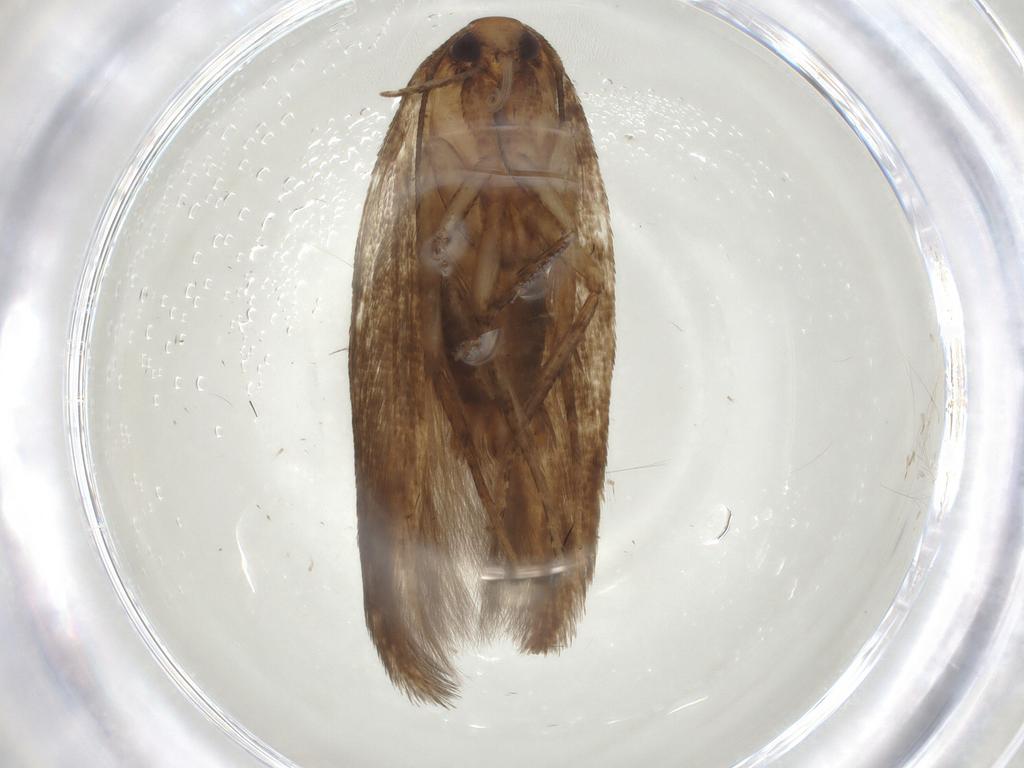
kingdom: Animalia
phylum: Arthropoda
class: Insecta
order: Lepidoptera
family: Cosmopterigidae
